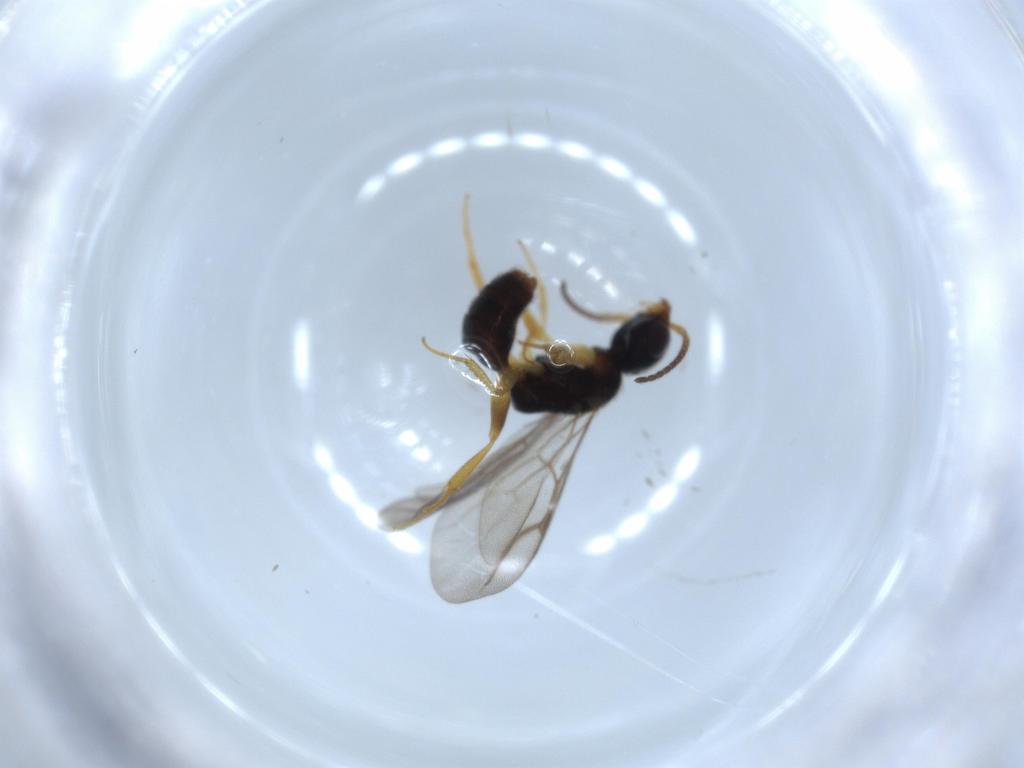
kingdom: Animalia
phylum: Arthropoda
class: Insecta
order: Hymenoptera
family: Bethylidae
